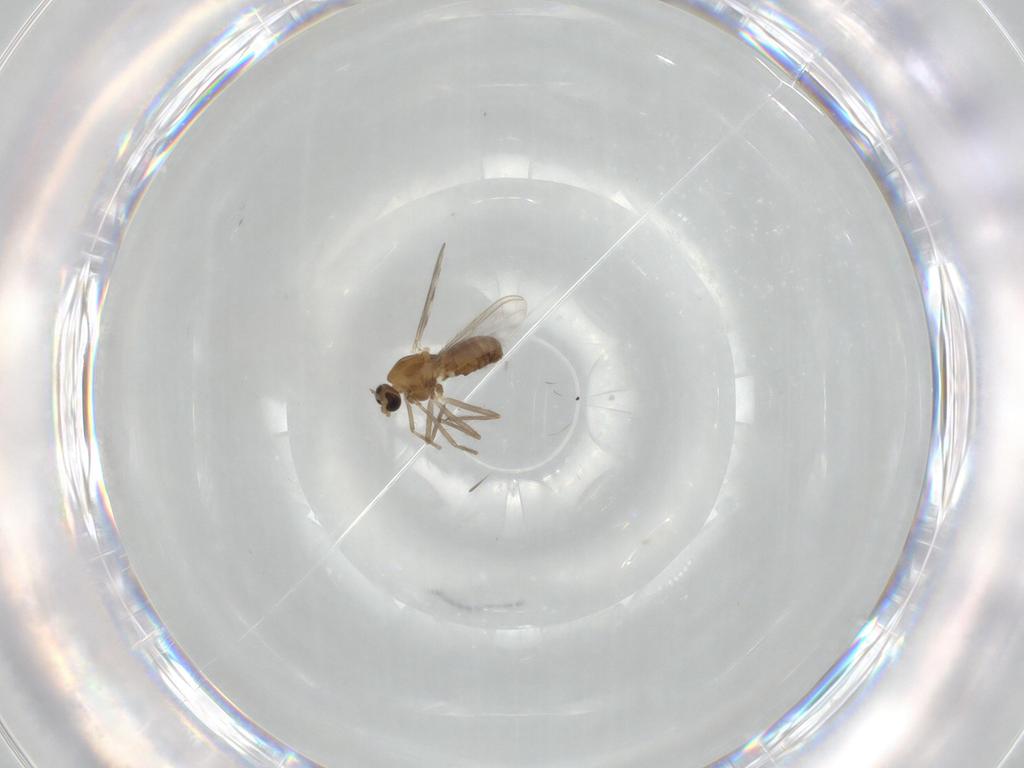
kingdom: Animalia
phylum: Arthropoda
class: Insecta
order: Diptera
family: Chironomidae
